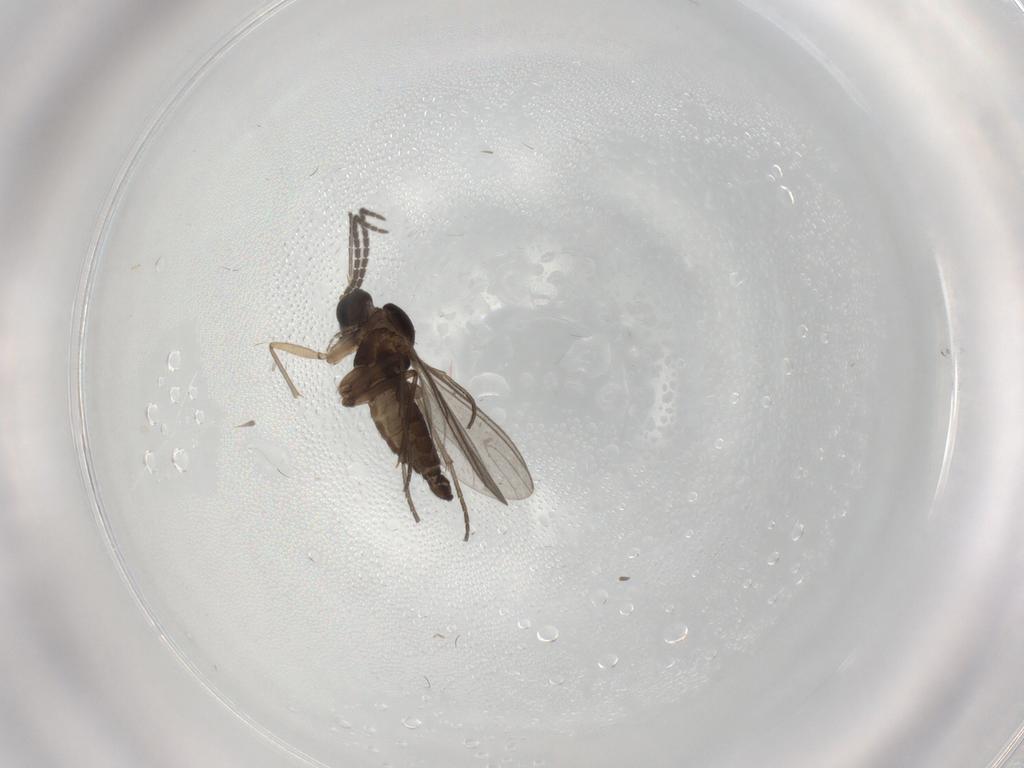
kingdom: Animalia
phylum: Arthropoda
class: Insecta
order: Diptera
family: Sciaridae
